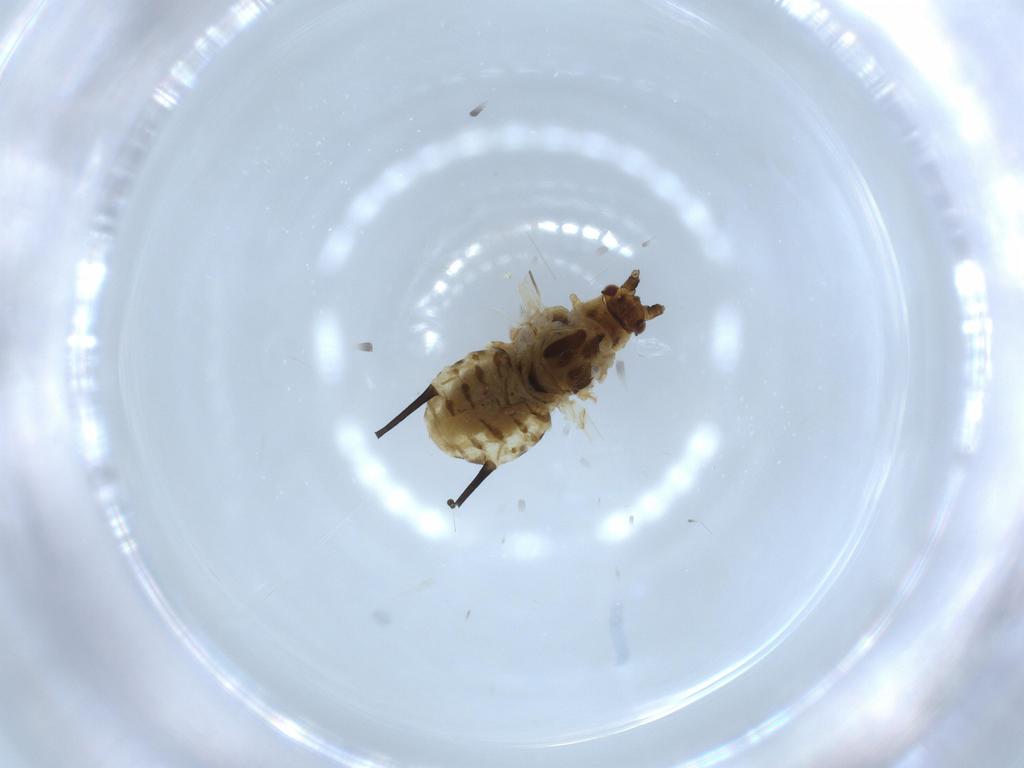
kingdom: Animalia
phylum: Arthropoda
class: Insecta
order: Hemiptera
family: Aphididae
